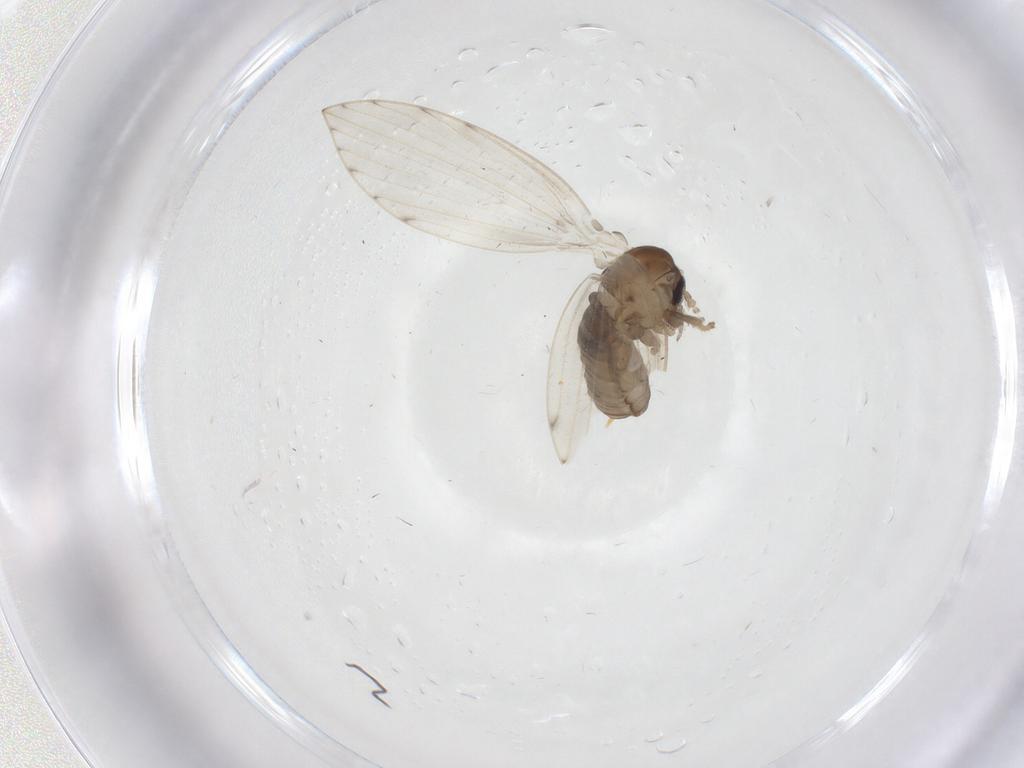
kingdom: Animalia
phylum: Arthropoda
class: Insecta
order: Diptera
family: Psychodidae
